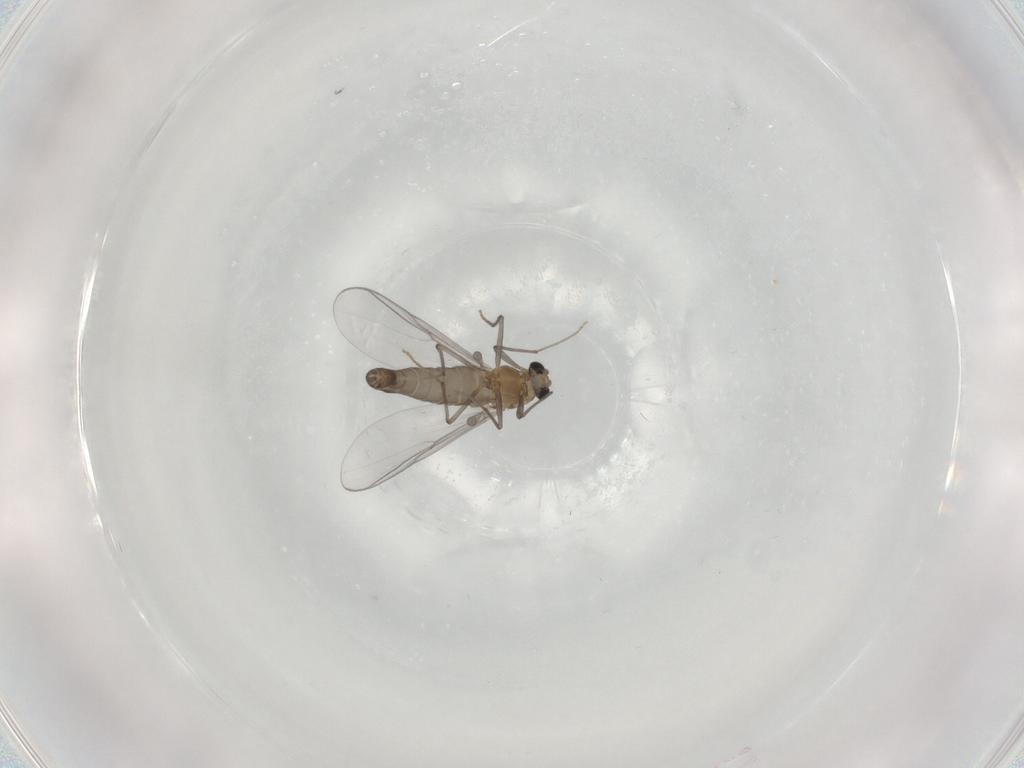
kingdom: Animalia
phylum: Arthropoda
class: Insecta
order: Diptera
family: Chironomidae
